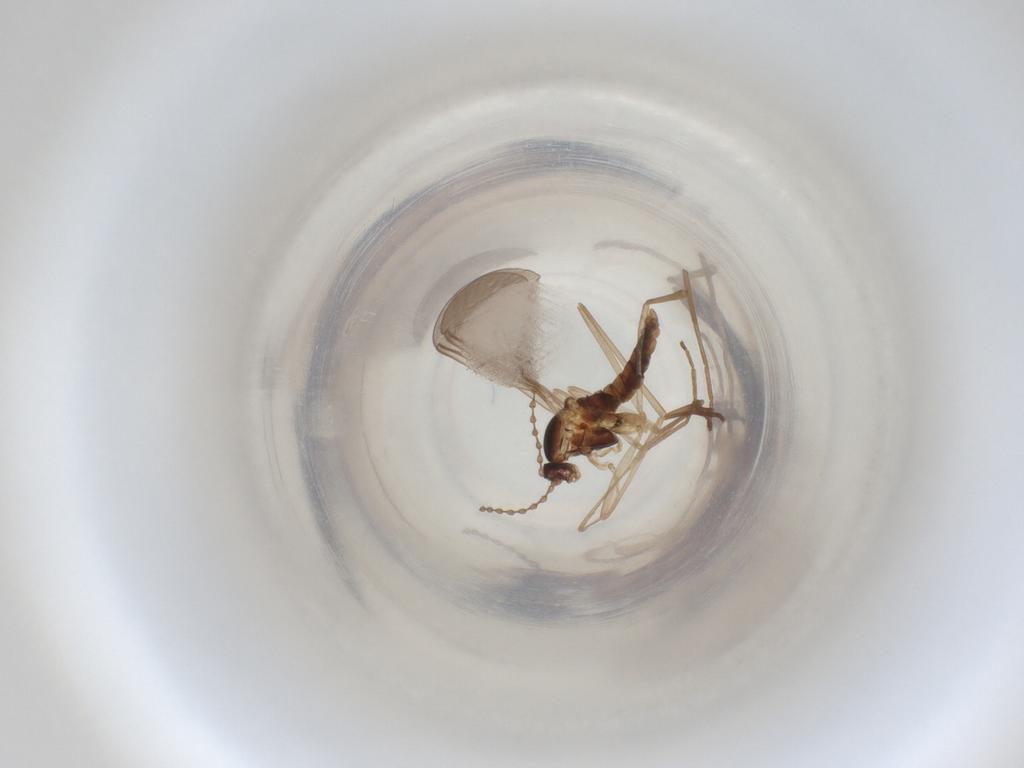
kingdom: Animalia
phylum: Arthropoda
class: Insecta
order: Diptera
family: Cecidomyiidae
